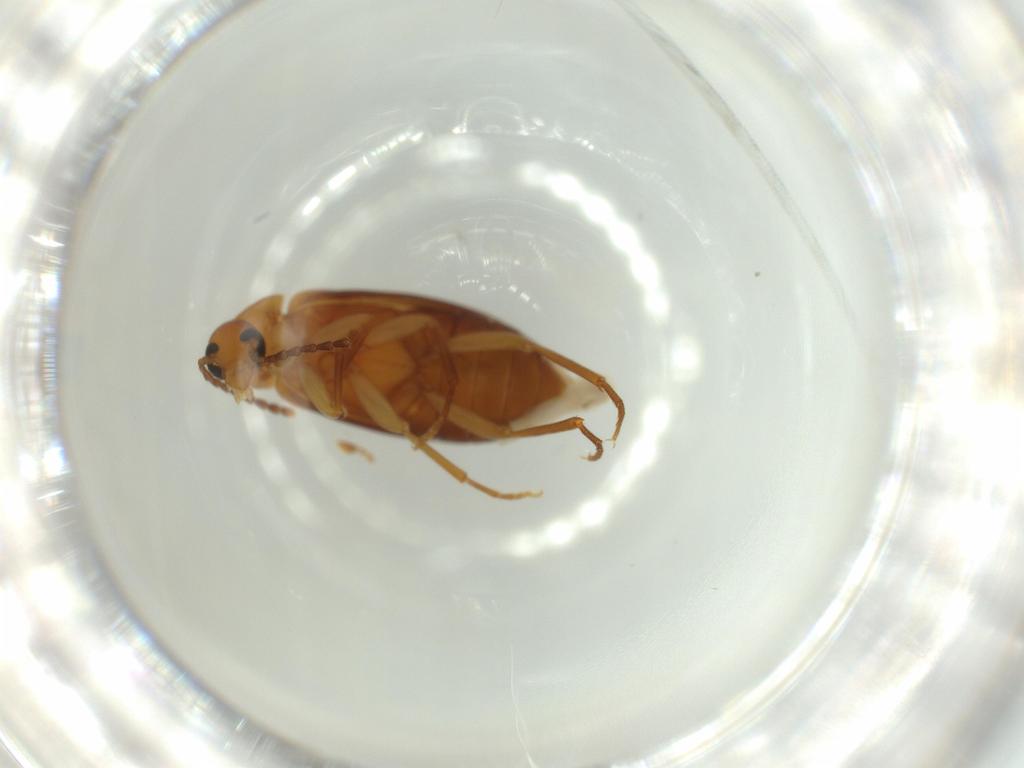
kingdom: Animalia
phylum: Arthropoda
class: Insecta
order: Coleoptera
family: Scraptiidae
